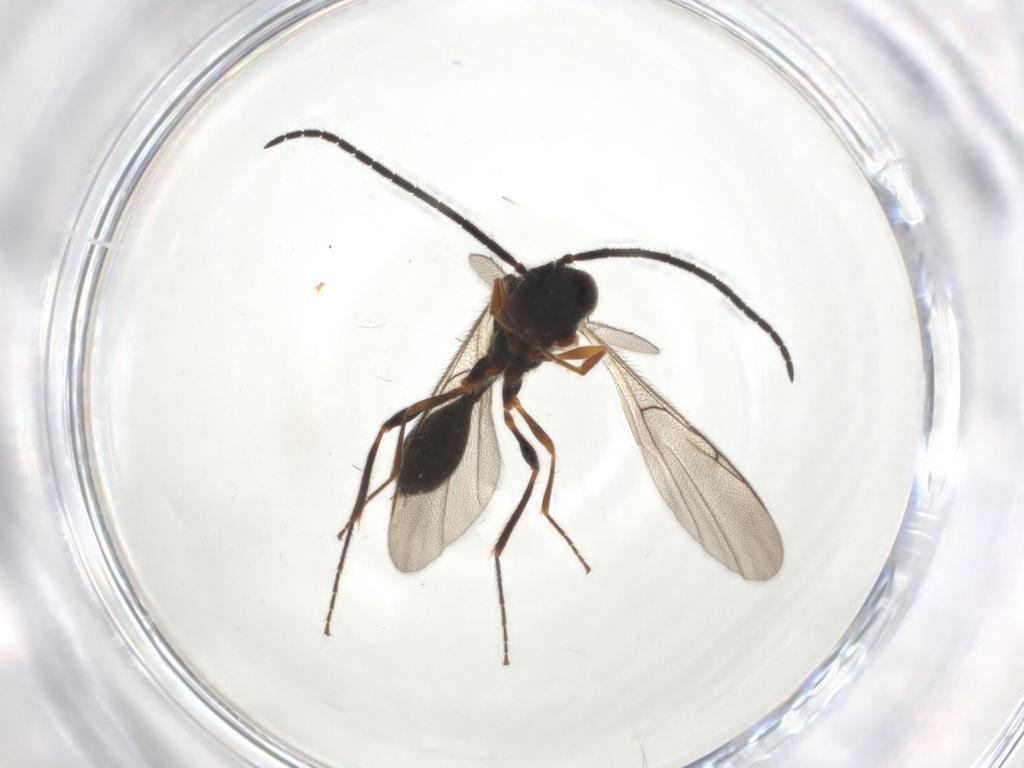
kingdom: Animalia
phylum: Arthropoda
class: Insecta
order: Hymenoptera
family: Diapriidae
